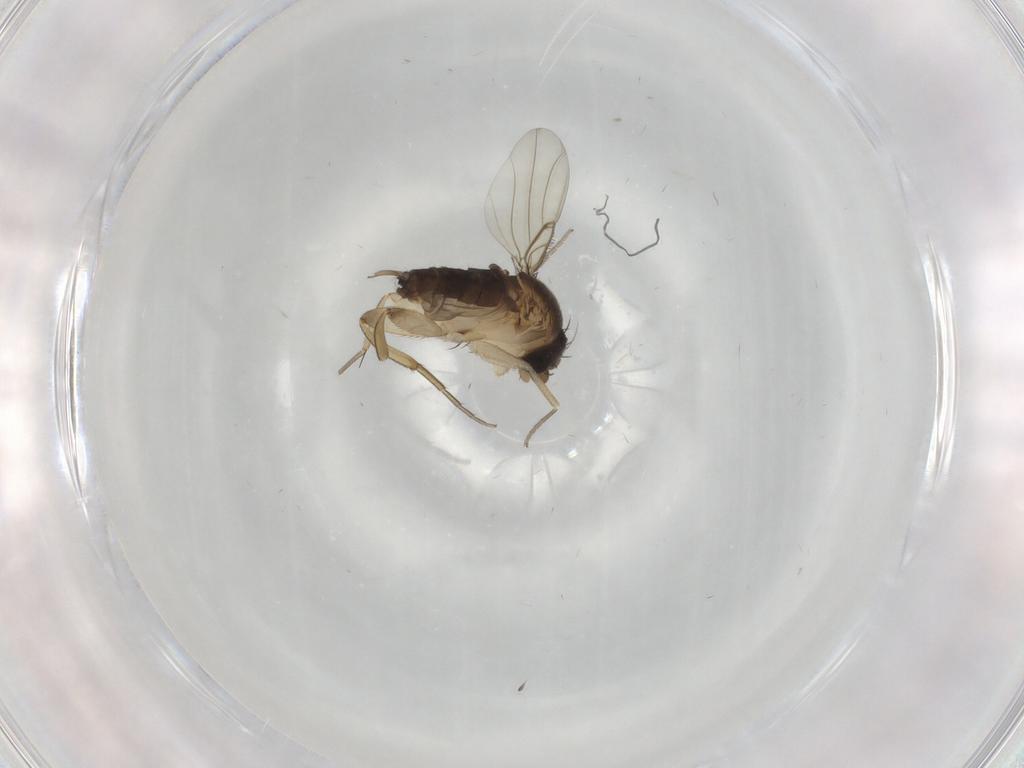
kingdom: Animalia
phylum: Arthropoda
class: Insecta
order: Diptera
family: Phoridae
